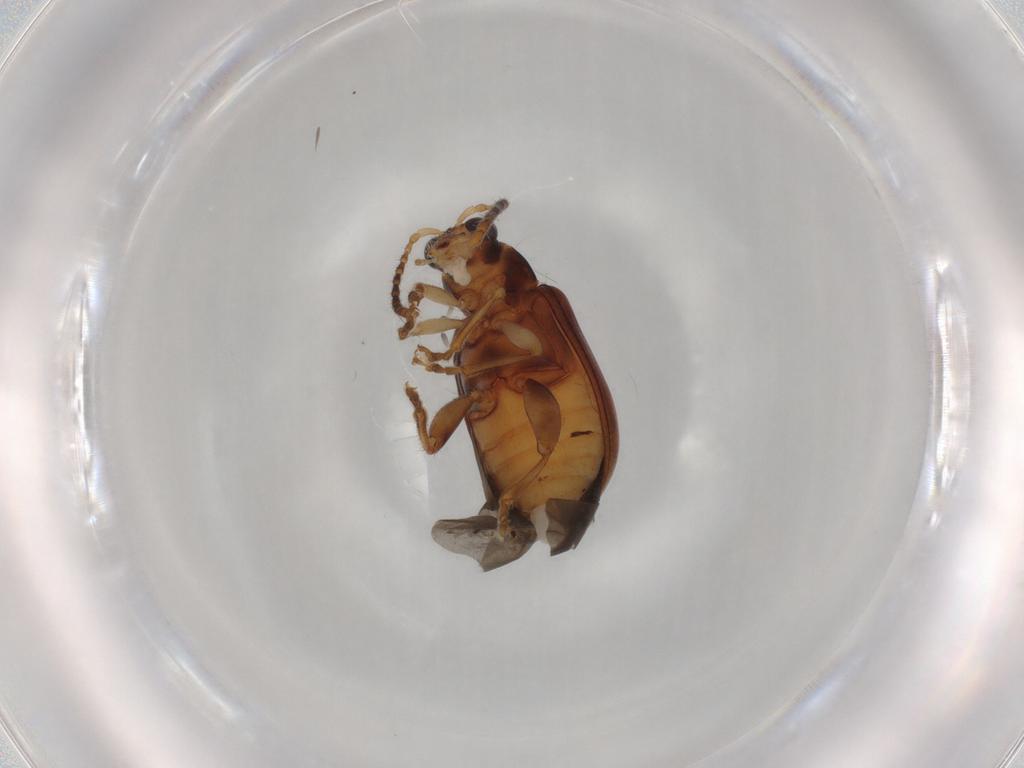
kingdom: Animalia
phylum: Arthropoda
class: Insecta
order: Coleoptera
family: Chrysomelidae
